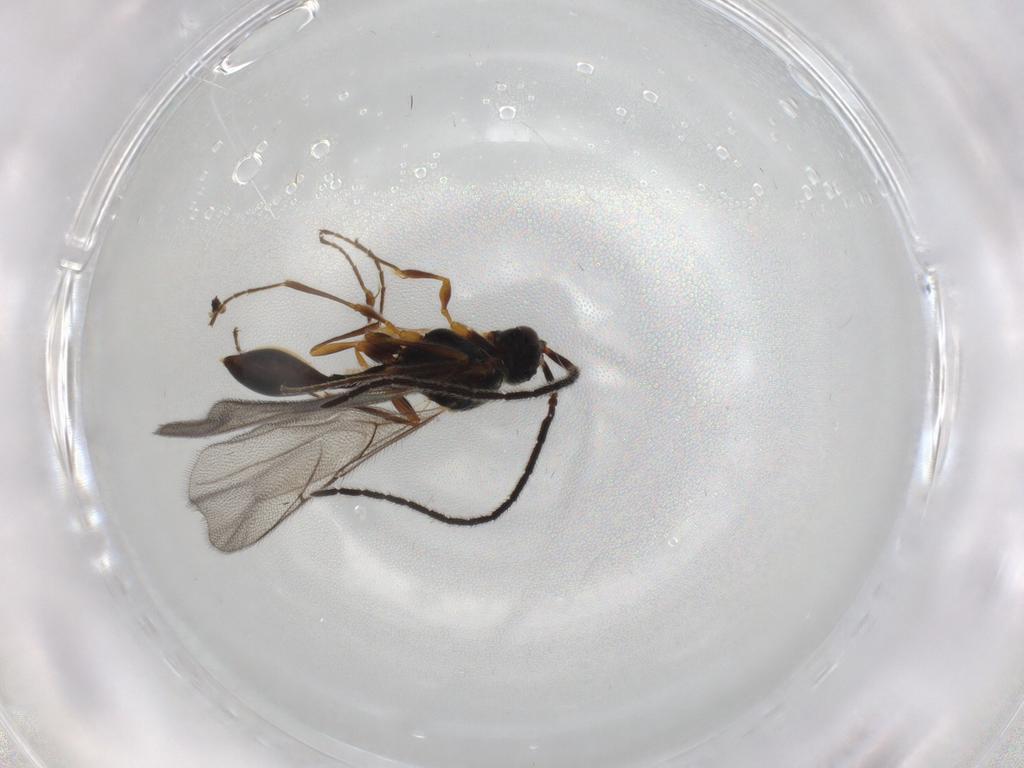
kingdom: Animalia
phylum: Arthropoda
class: Insecta
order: Hymenoptera
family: Diapriidae
